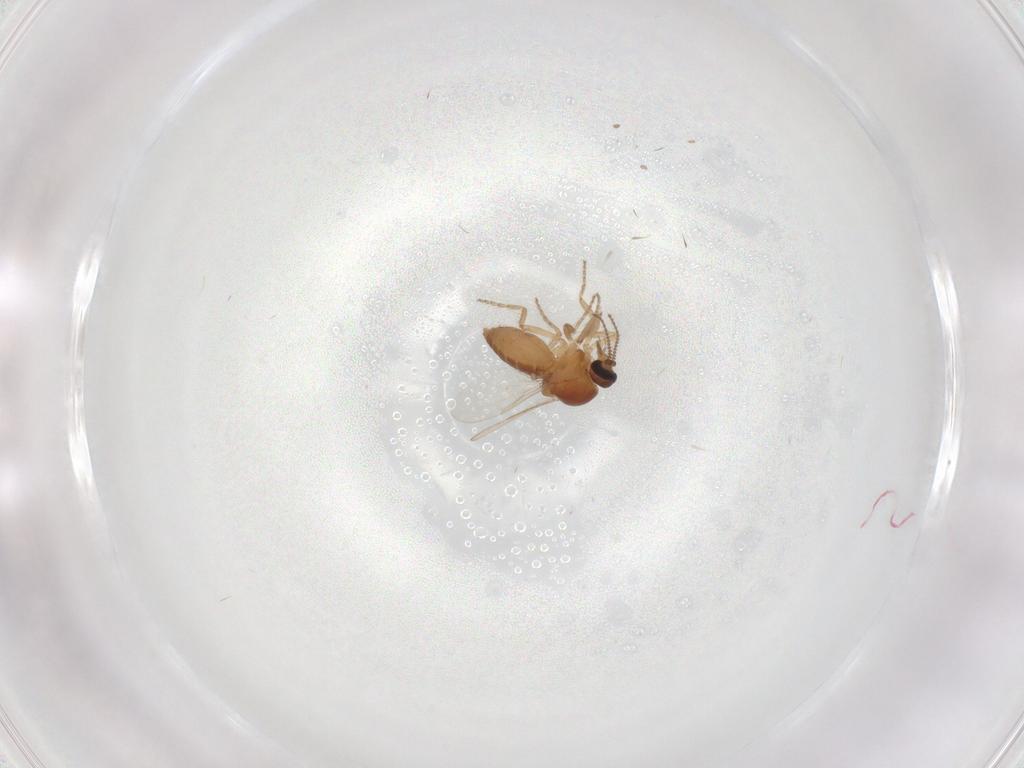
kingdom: Animalia
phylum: Arthropoda
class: Insecta
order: Diptera
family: Ceratopogonidae
